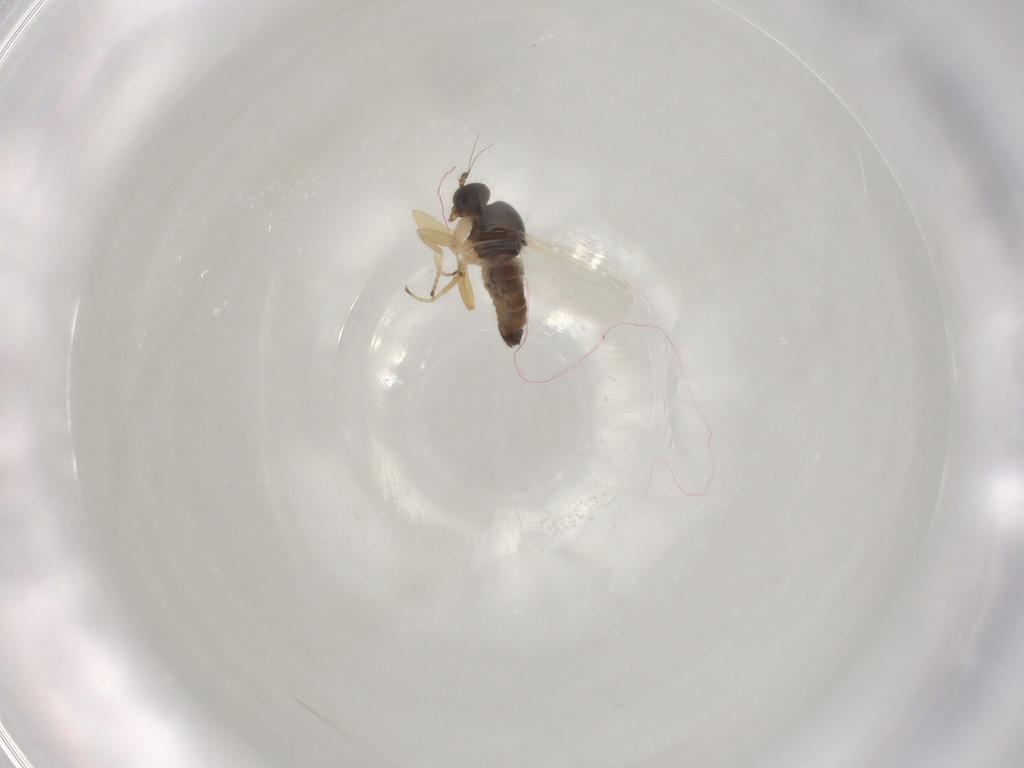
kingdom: Animalia
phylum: Arthropoda
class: Insecta
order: Diptera
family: Hybotidae
